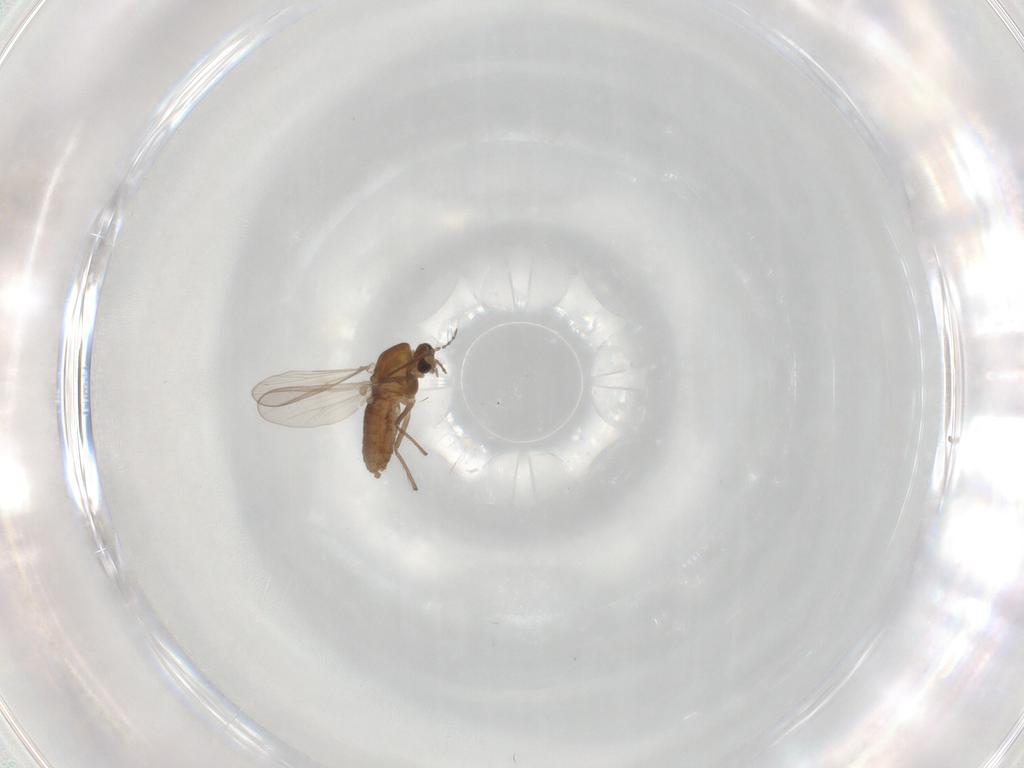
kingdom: Animalia
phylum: Arthropoda
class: Insecta
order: Diptera
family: Chironomidae
